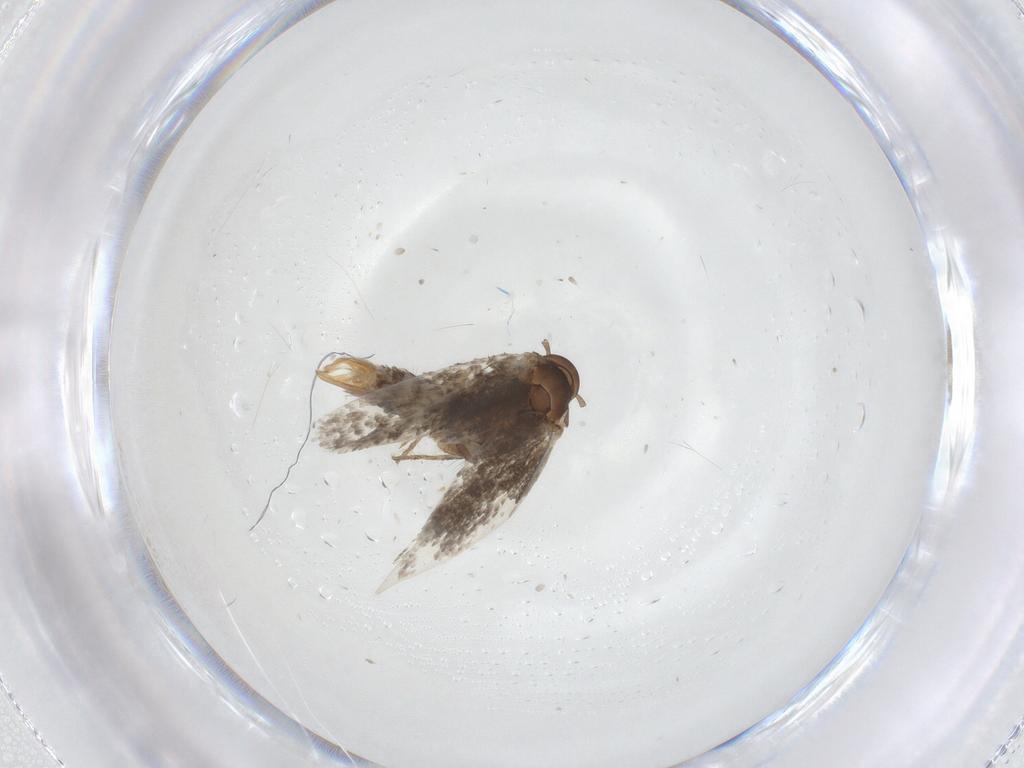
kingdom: Animalia
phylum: Arthropoda
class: Insecta
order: Lepidoptera
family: Elachistidae
